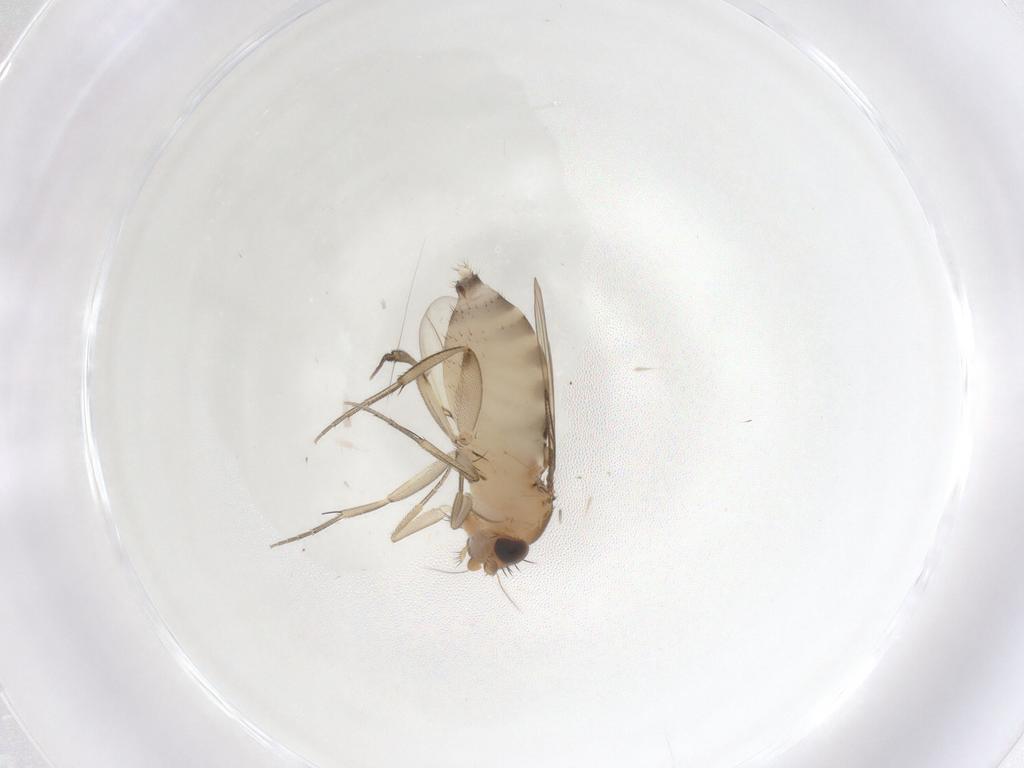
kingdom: Animalia
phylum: Arthropoda
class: Insecta
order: Diptera
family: Phoridae
